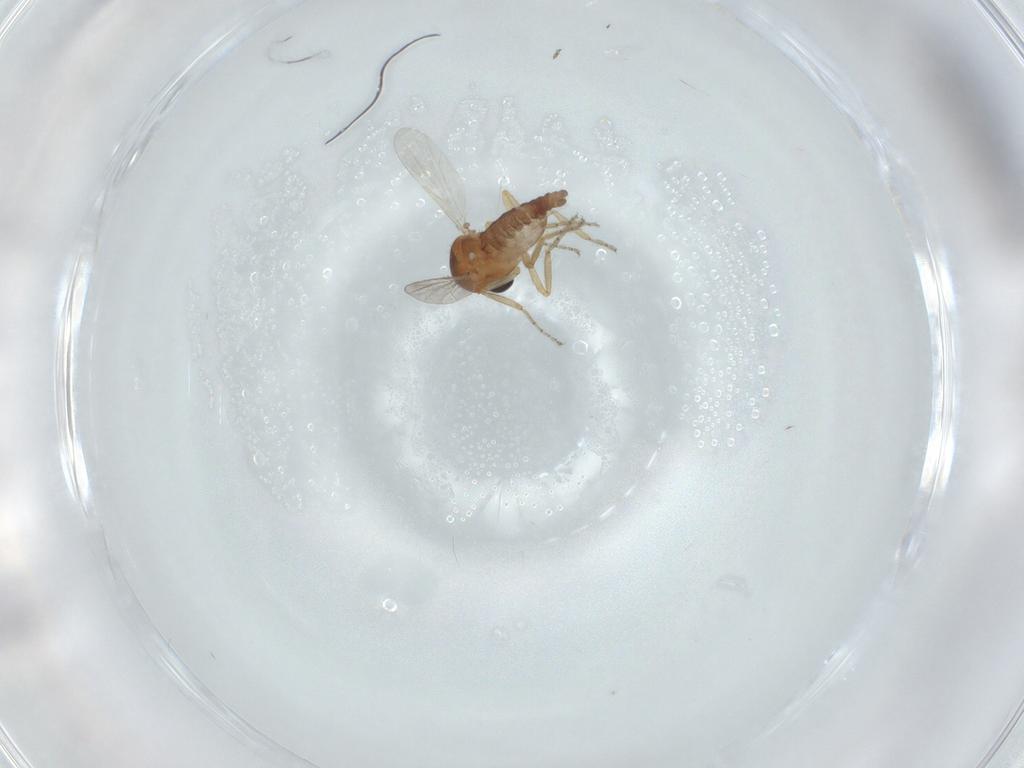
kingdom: Animalia
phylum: Arthropoda
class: Insecta
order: Diptera
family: Ceratopogonidae
